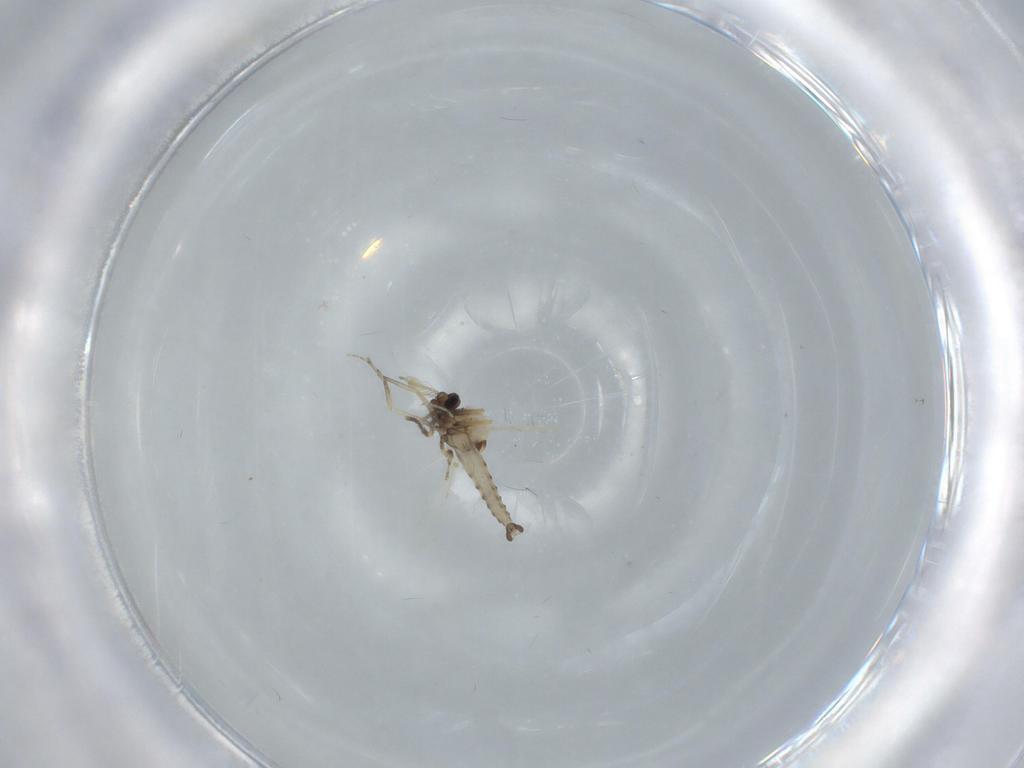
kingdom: Animalia
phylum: Arthropoda
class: Insecta
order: Diptera
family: Ceratopogonidae
